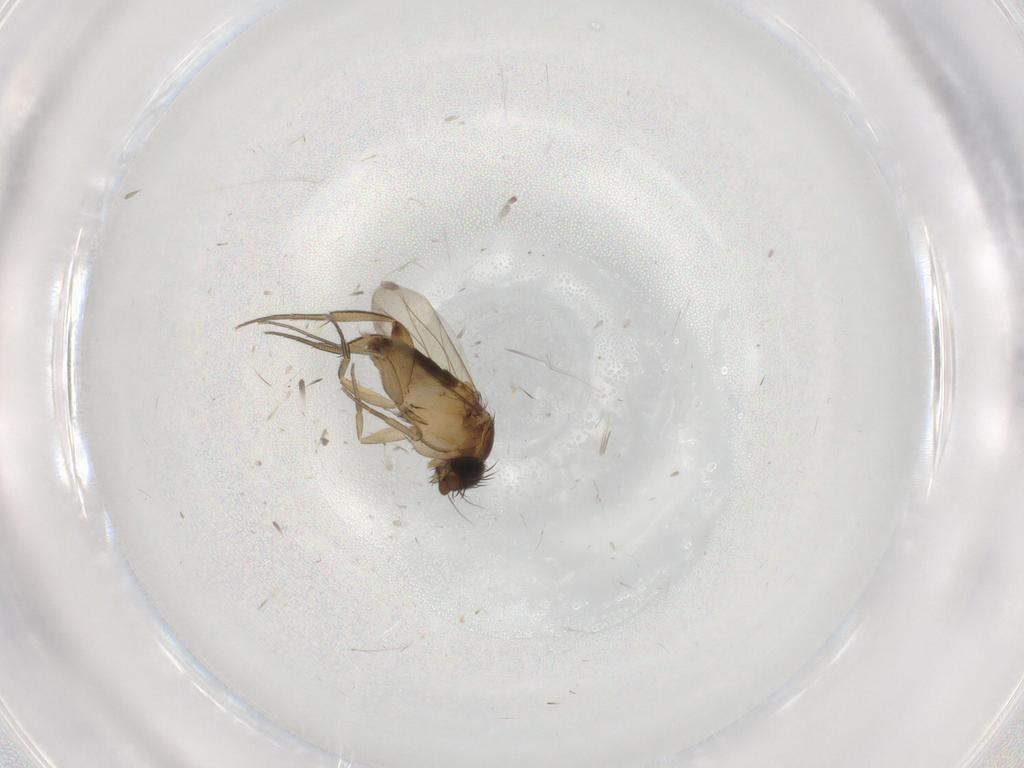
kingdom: Animalia
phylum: Arthropoda
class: Insecta
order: Diptera
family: Phoridae
